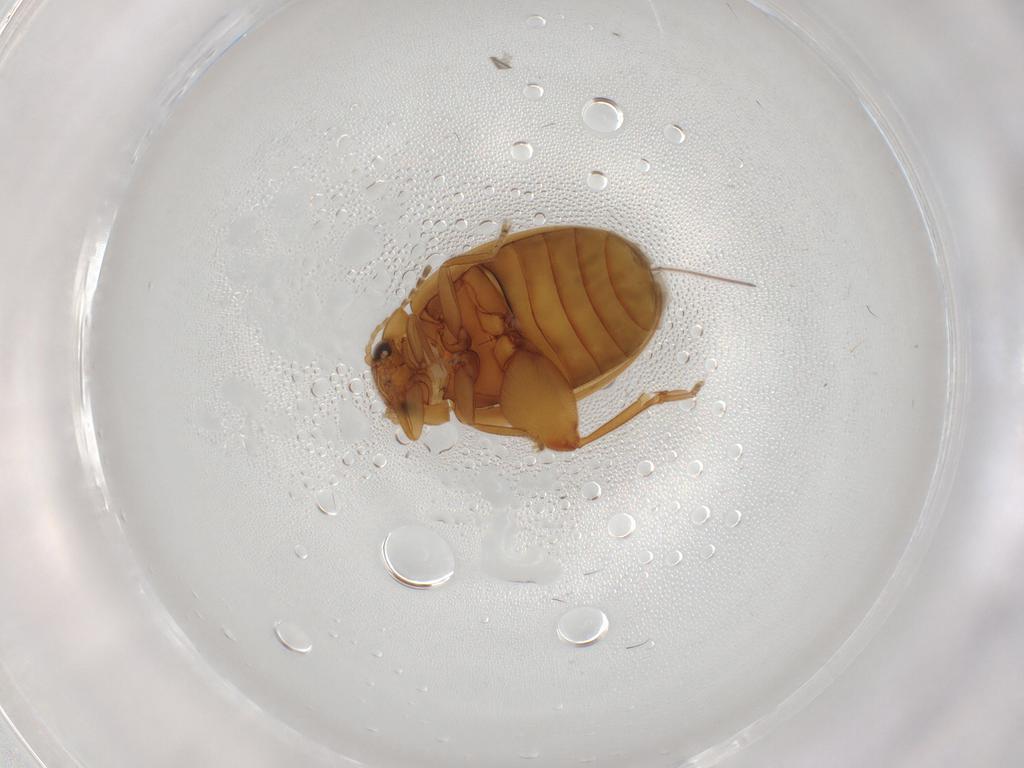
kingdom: Animalia
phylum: Arthropoda
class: Insecta
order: Coleoptera
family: Scirtidae
